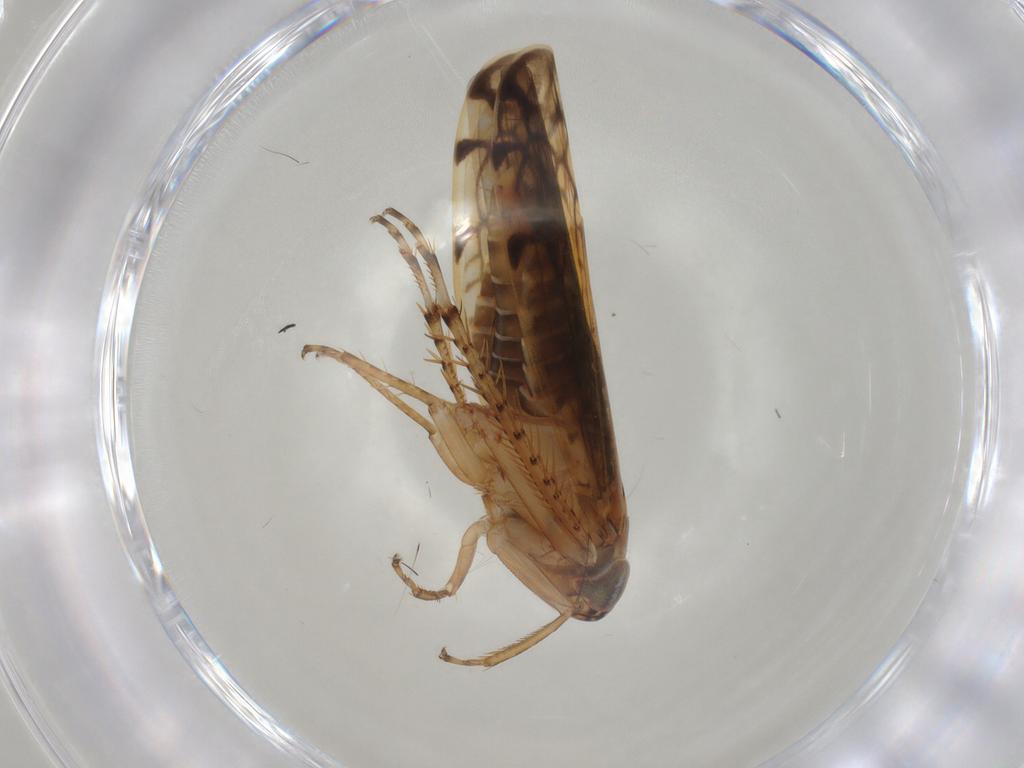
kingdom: Animalia
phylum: Arthropoda
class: Insecta
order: Hemiptera
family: Cicadellidae
